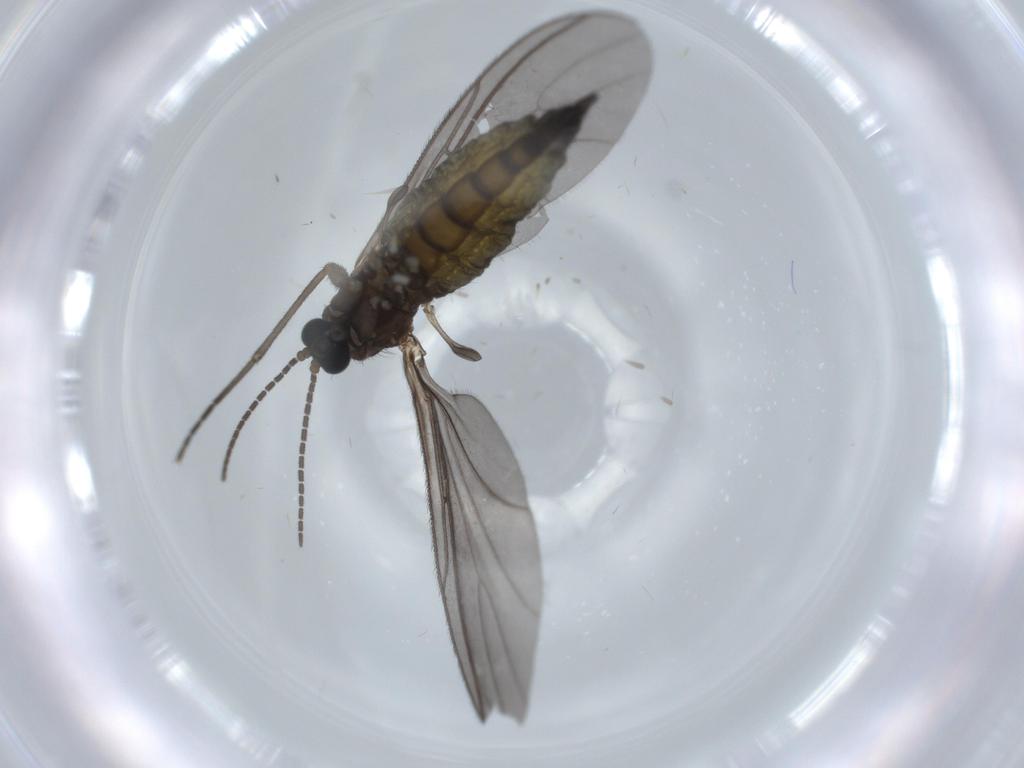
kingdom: Animalia
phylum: Arthropoda
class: Insecta
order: Diptera
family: Sciaridae
